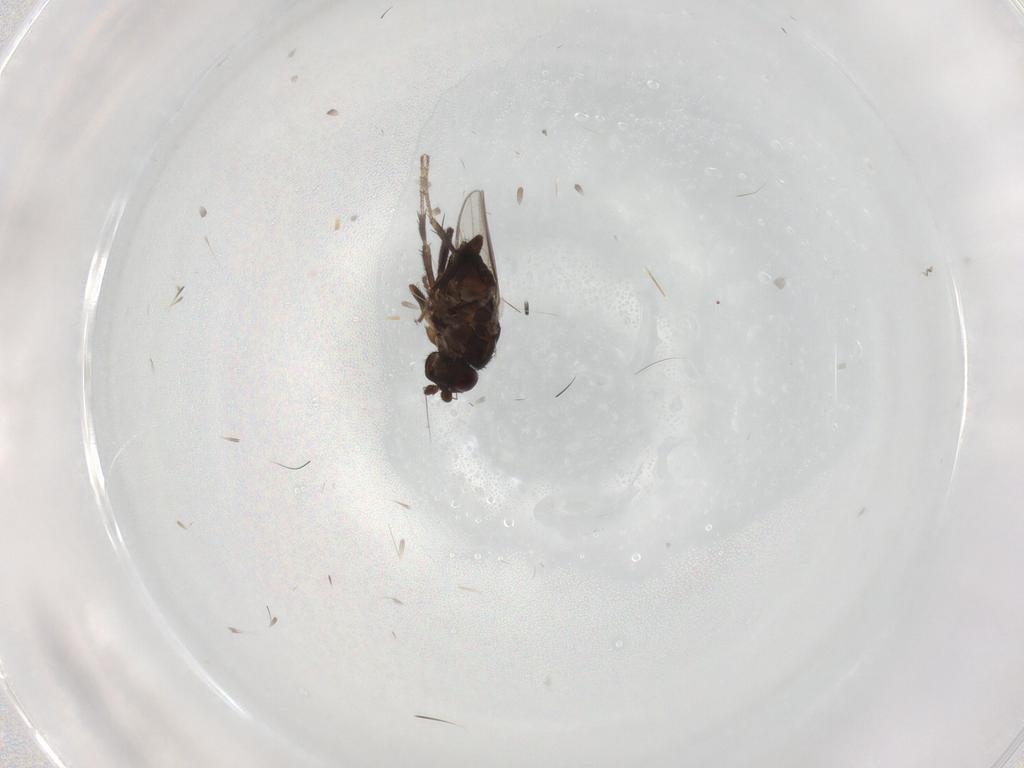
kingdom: Animalia
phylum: Arthropoda
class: Insecta
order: Diptera
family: Sphaeroceridae
